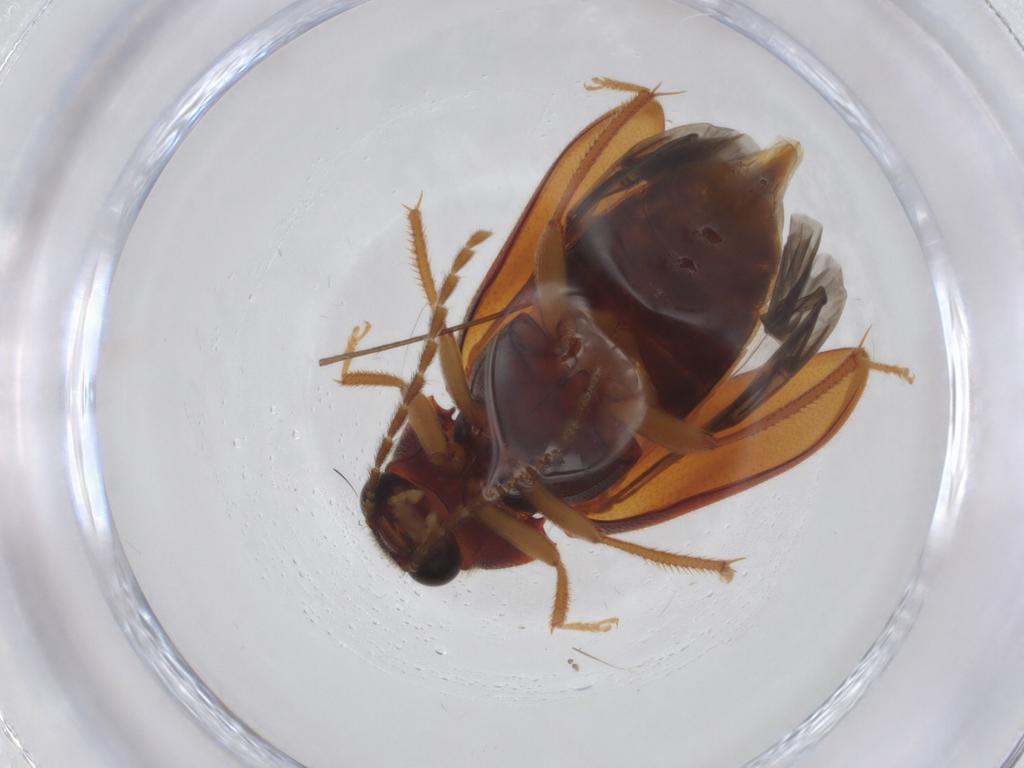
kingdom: Animalia
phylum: Arthropoda
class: Insecta
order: Coleoptera
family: Ptilodactylidae
